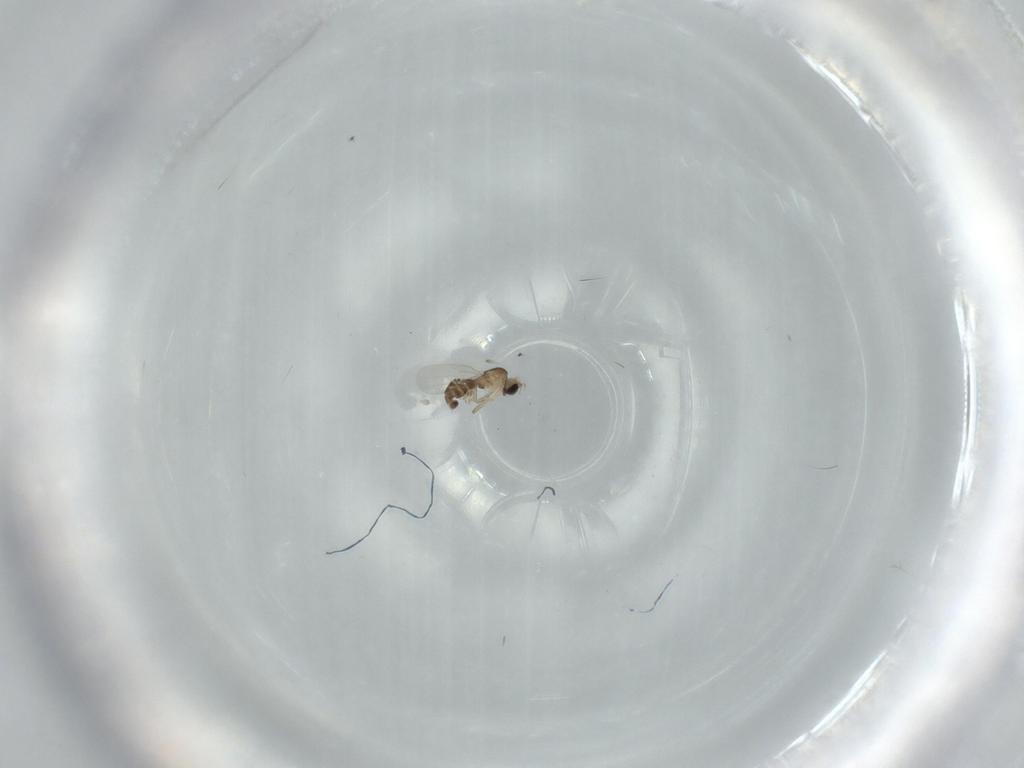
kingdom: Animalia
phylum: Arthropoda
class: Insecta
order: Diptera
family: Phoridae
